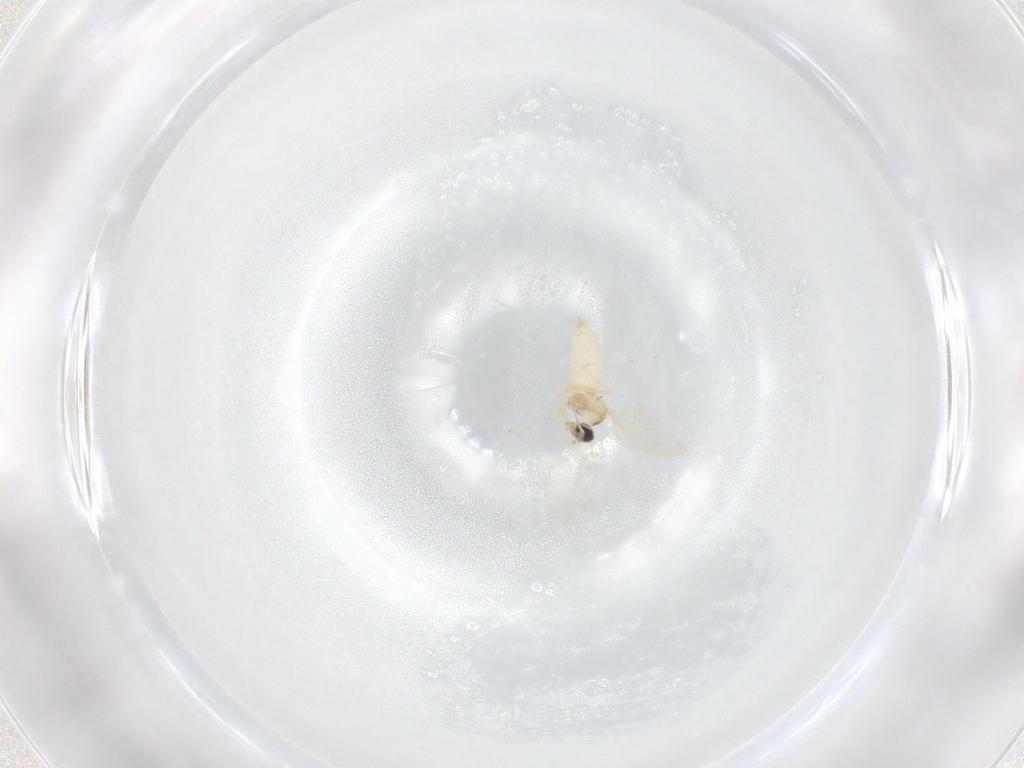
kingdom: Animalia
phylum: Arthropoda
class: Insecta
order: Diptera
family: Cecidomyiidae
